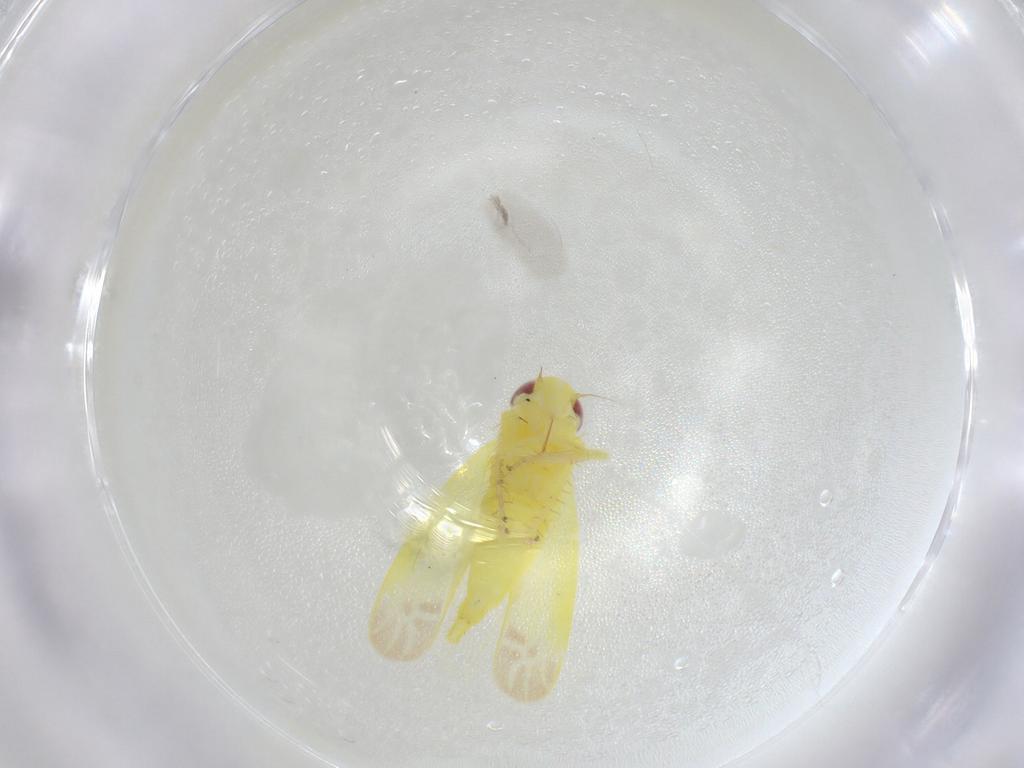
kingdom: Animalia
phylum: Arthropoda
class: Insecta
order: Hemiptera
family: Cicadellidae
